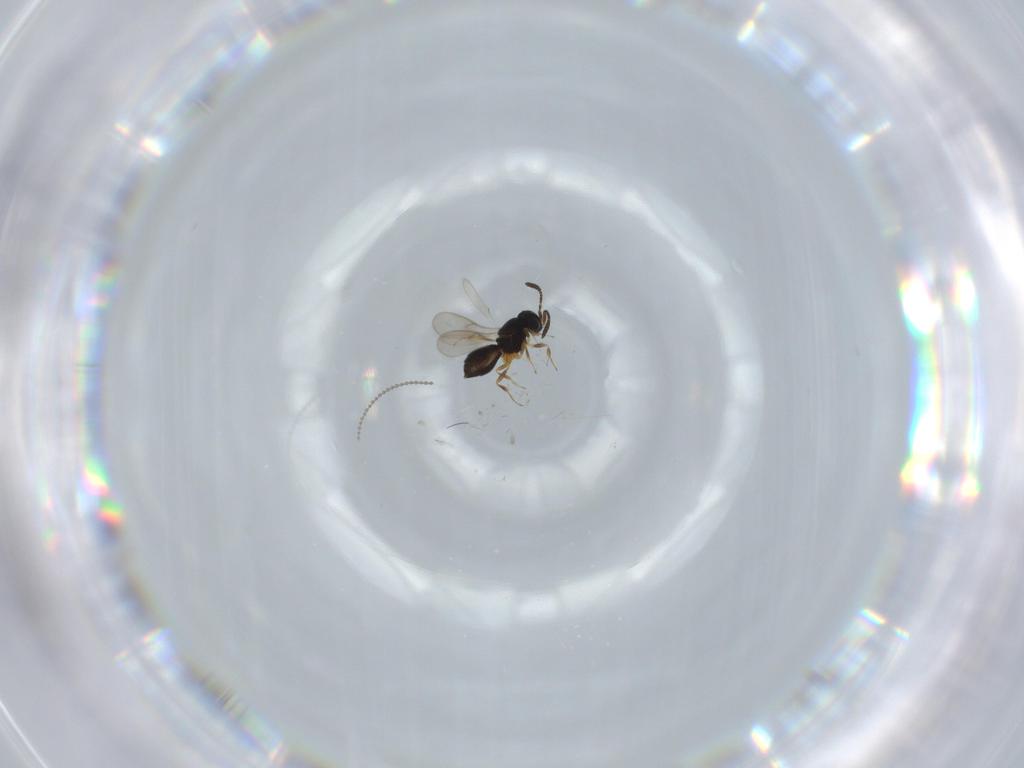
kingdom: Animalia
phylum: Arthropoda
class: Insecta
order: Hymenoptera
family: Scelionidae
